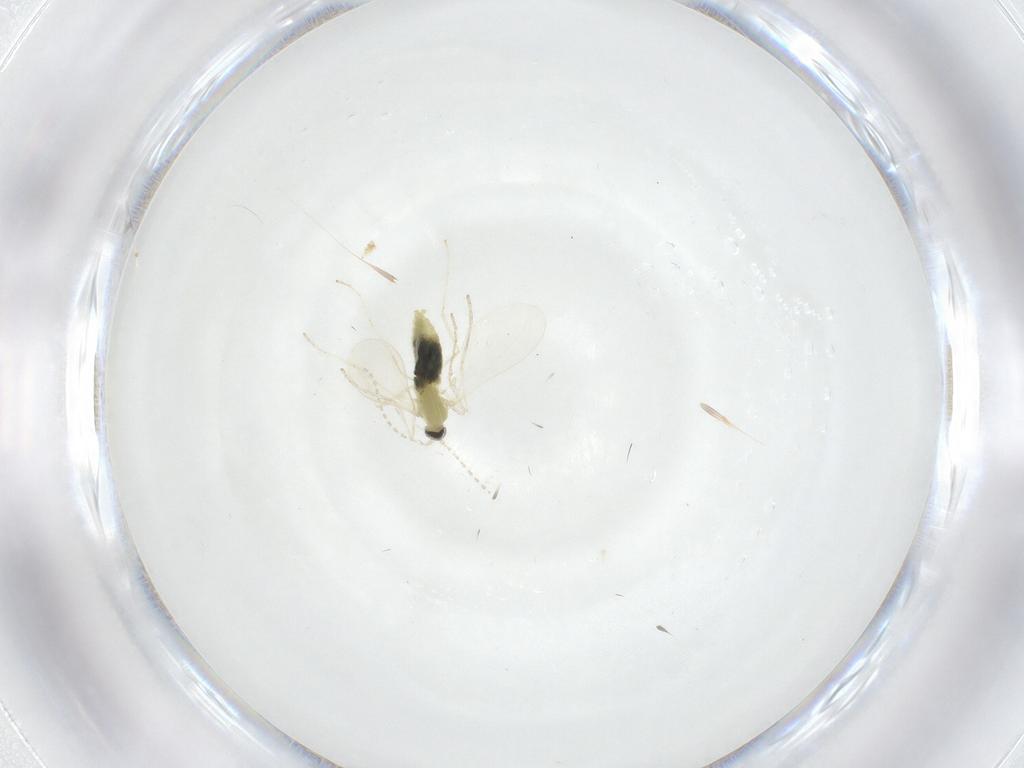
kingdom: Animalia
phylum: Arthropoda
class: Insecta
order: Diptera
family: Cecidomyiidae
